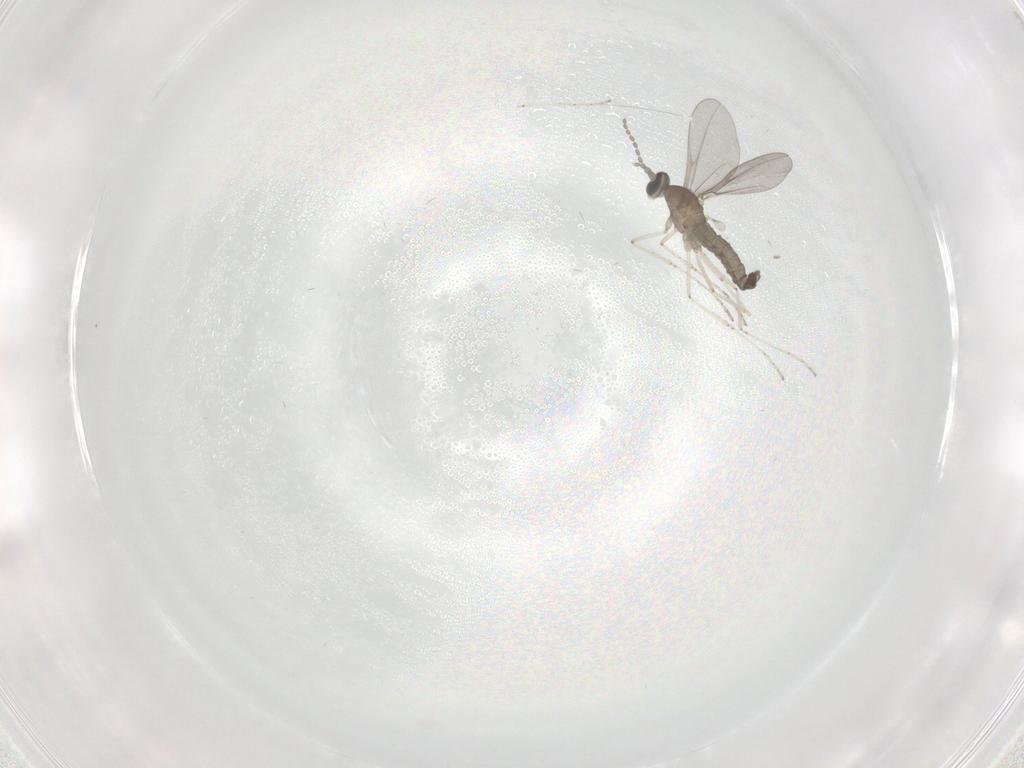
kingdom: Animalia
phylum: Arthropoda
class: Insecta
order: Diptera
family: Cecidomyiidae
